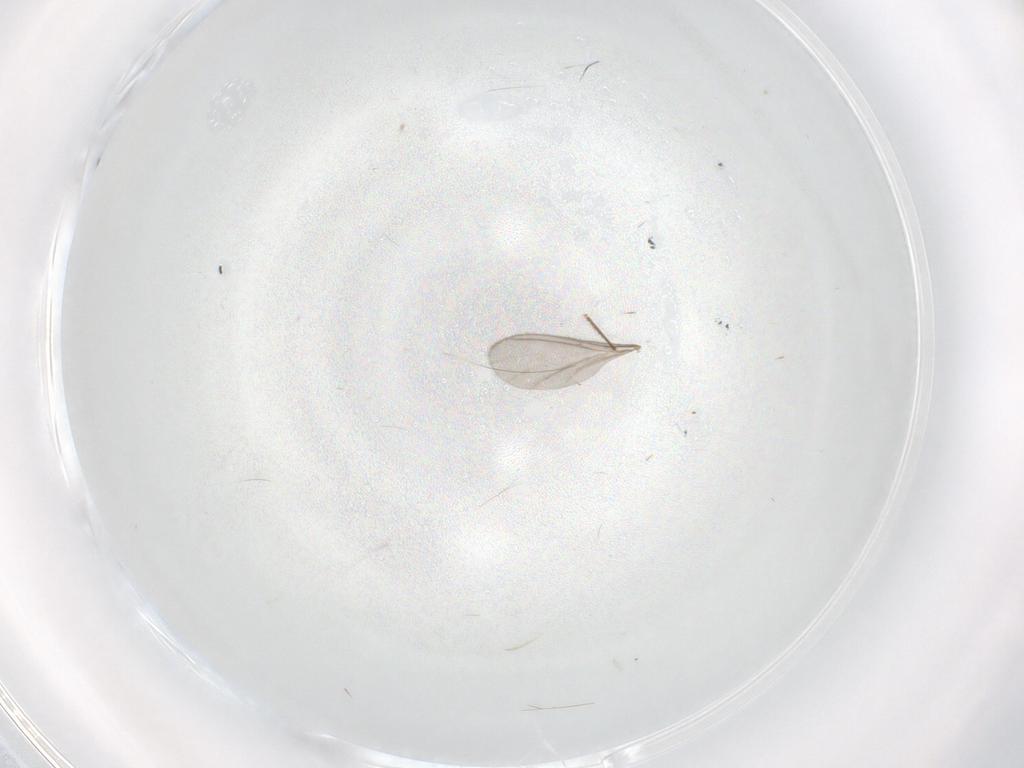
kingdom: Animalia
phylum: Arthropoda
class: Insecta
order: Diptera
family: Chironomidae
